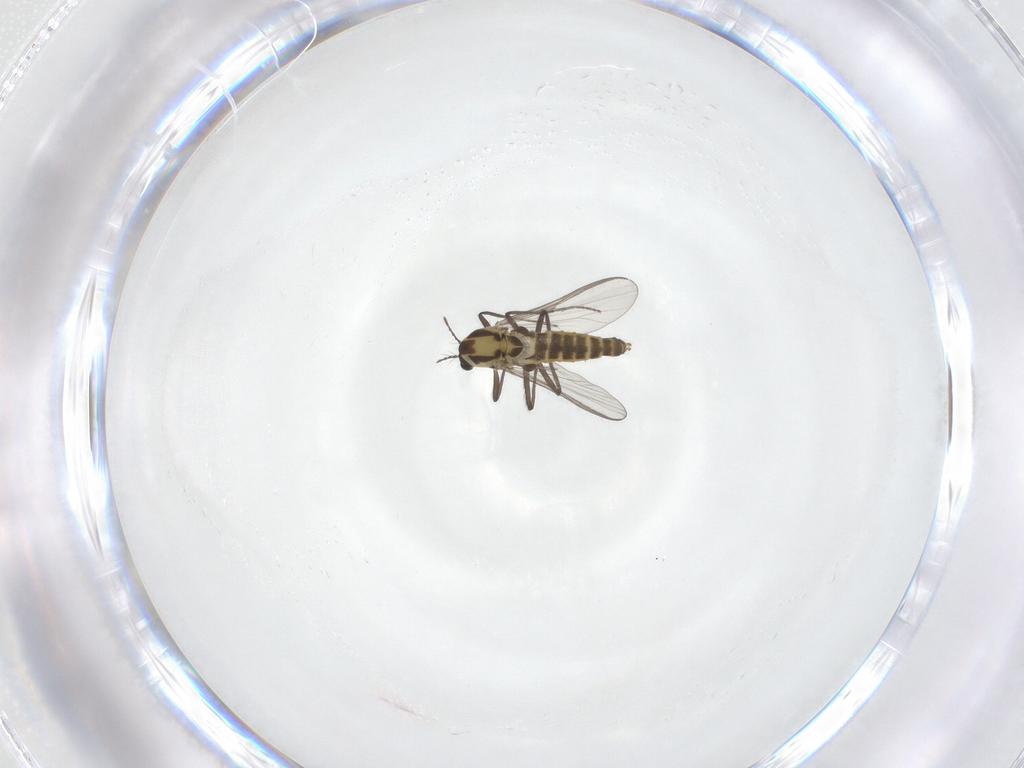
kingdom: Animalia
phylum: Arthropoda
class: Insecta
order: Diptera
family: Chironomidae
